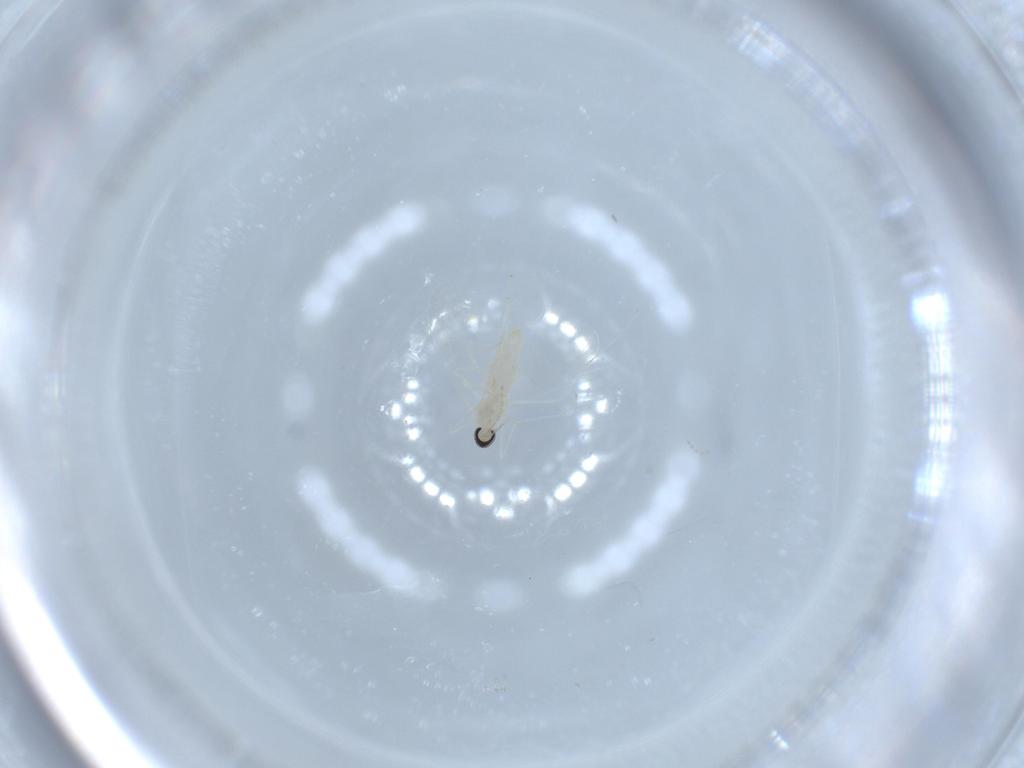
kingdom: Animalia
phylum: Arthropoda
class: Insecta
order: Diptera
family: Cecidomyiidae
